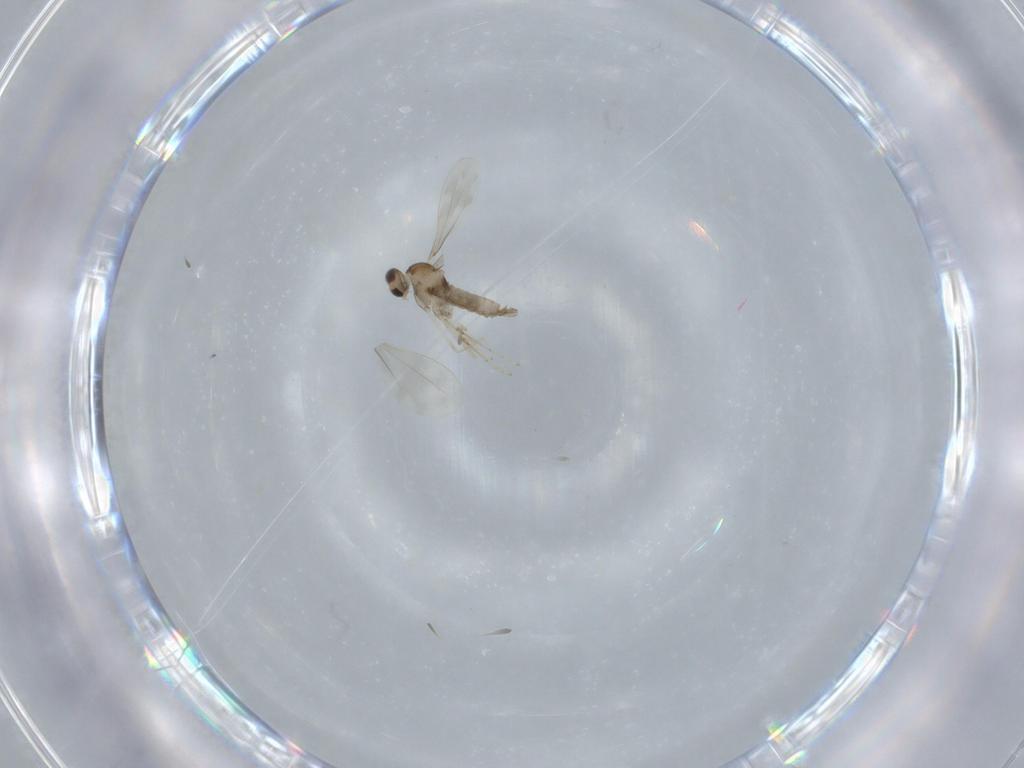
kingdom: Animalia
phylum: Arthropoda
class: Insecta
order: Diptera
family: Cecidomyiidae
